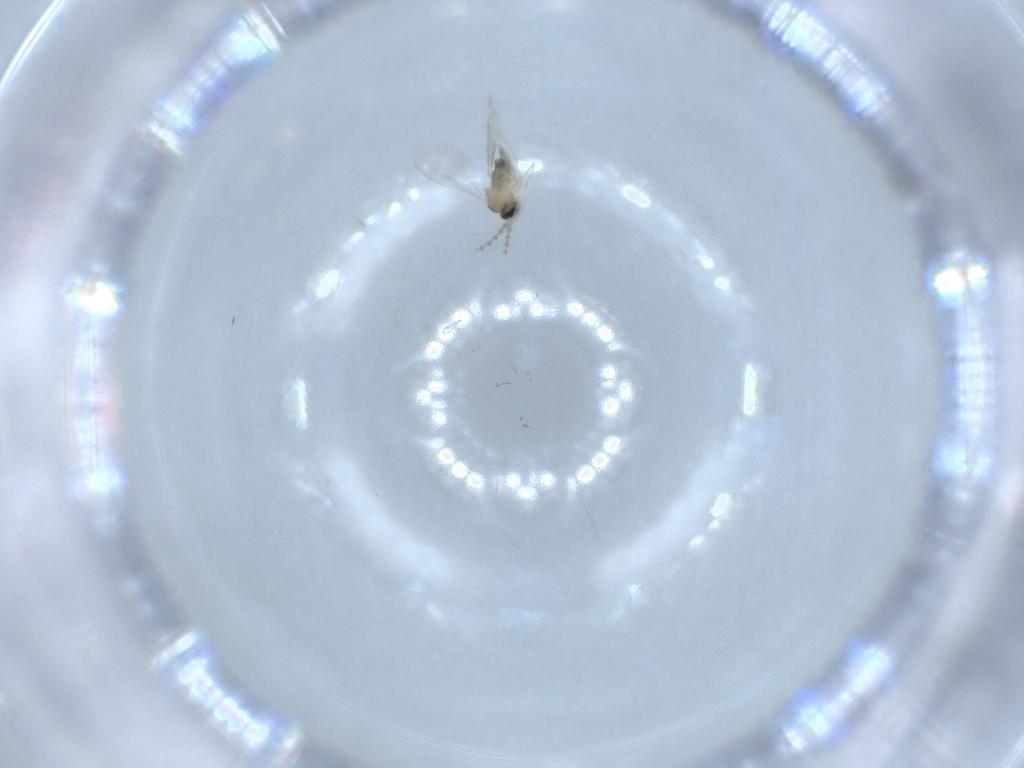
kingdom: Animalia
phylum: Arthropoda
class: Insecta
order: Diptera
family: Cecidomyiidae
